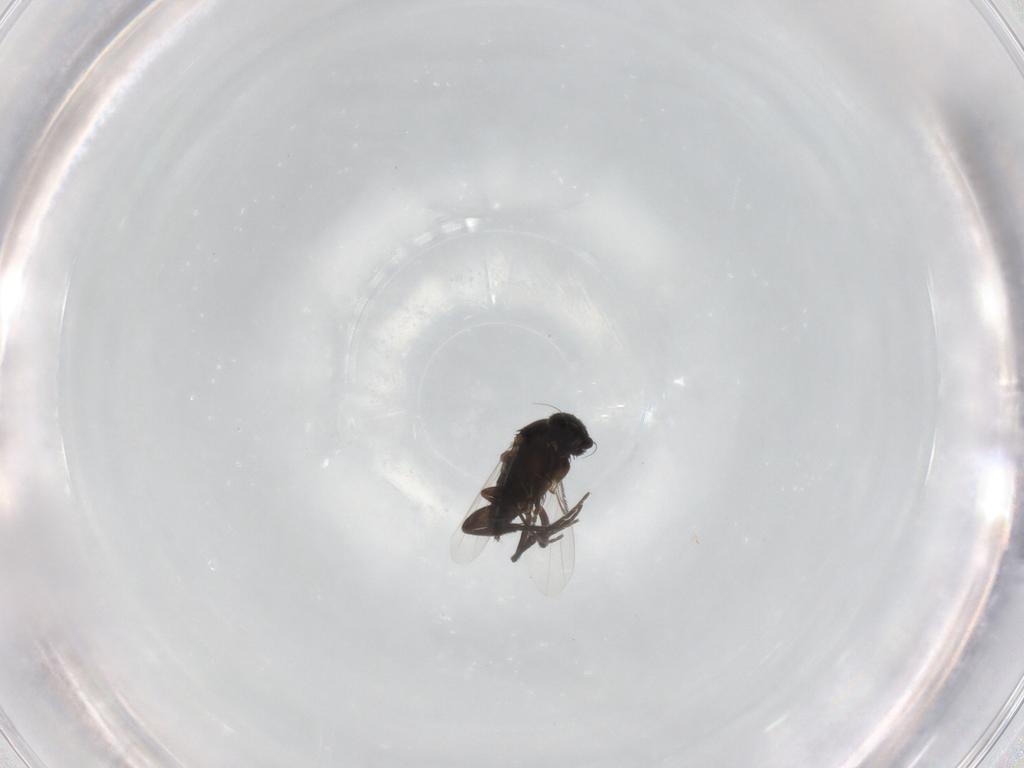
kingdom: Animalia
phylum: Arthropoda
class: Insecta
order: Diptera
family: Phoridae
